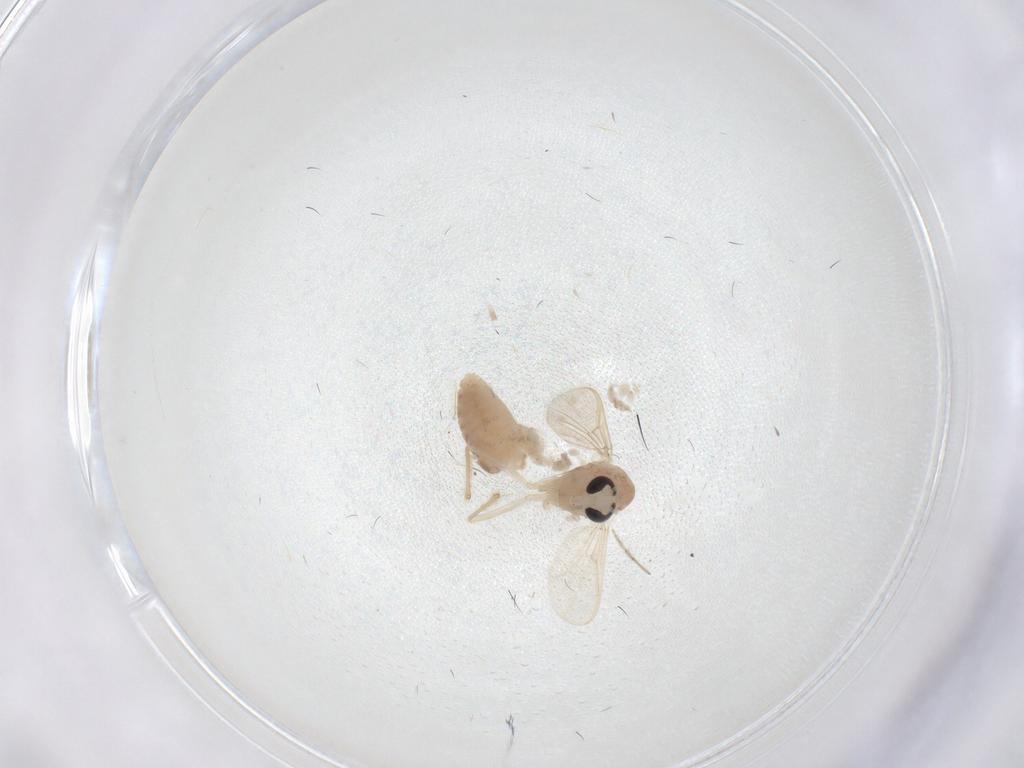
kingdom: Animalia
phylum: Arthropoda
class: Insecta
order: Diptera
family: Chironomidae
